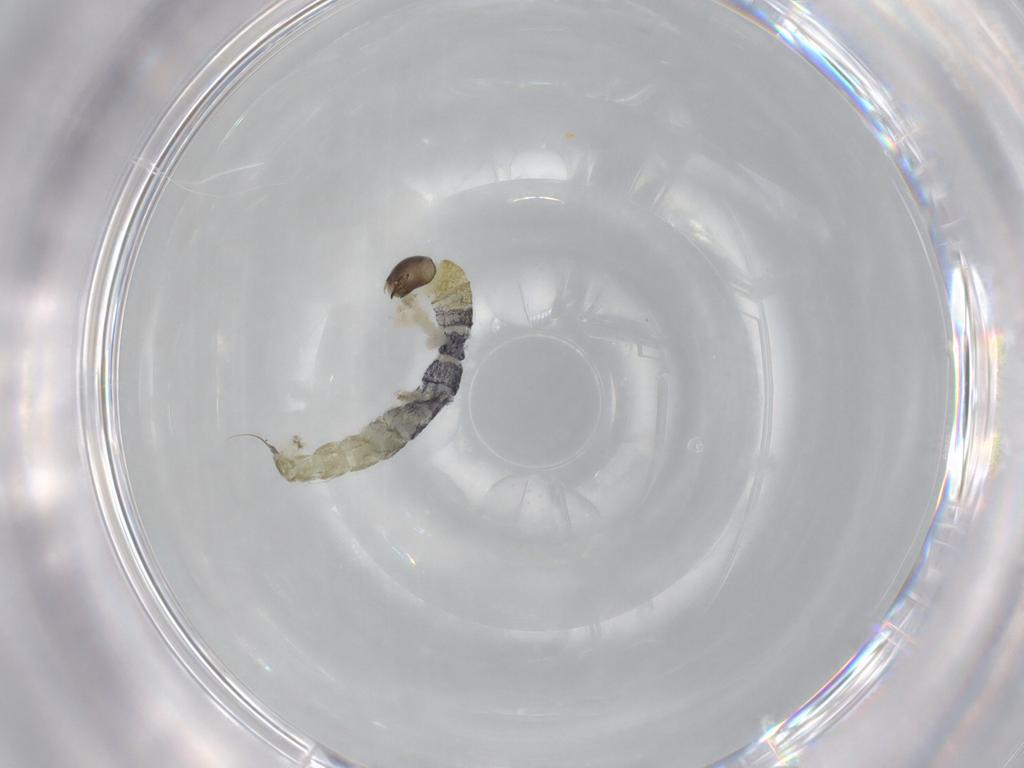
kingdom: Animalia
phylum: Arthropoda
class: Insecta
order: Diptera
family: Chironomidae
